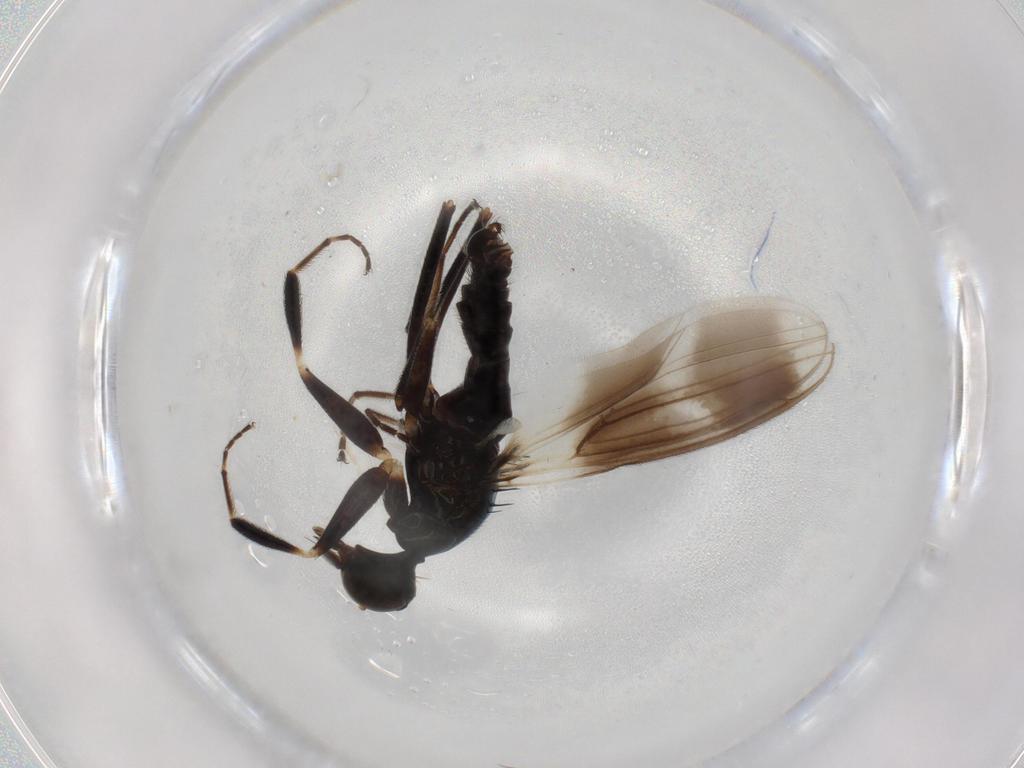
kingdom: Animalia
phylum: Arthropoda
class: Insecta
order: Diptera
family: Chironomidae
